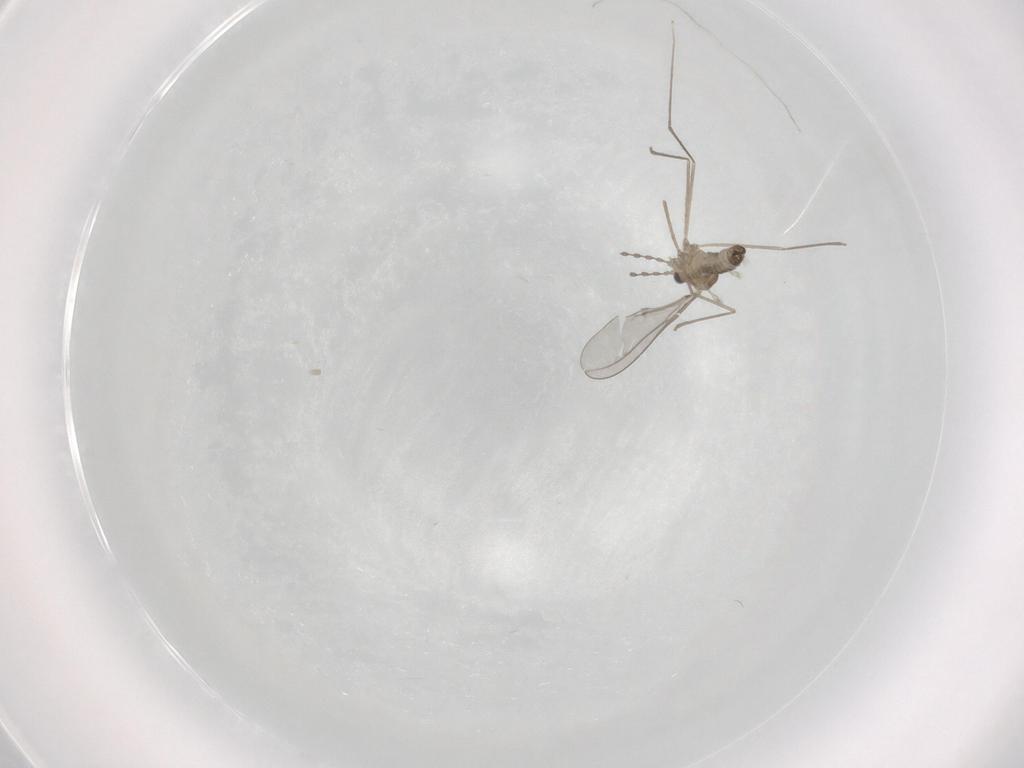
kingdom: Animalia
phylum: Arthropoda
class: Insecta
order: Diptera
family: Cecidomyiidae
